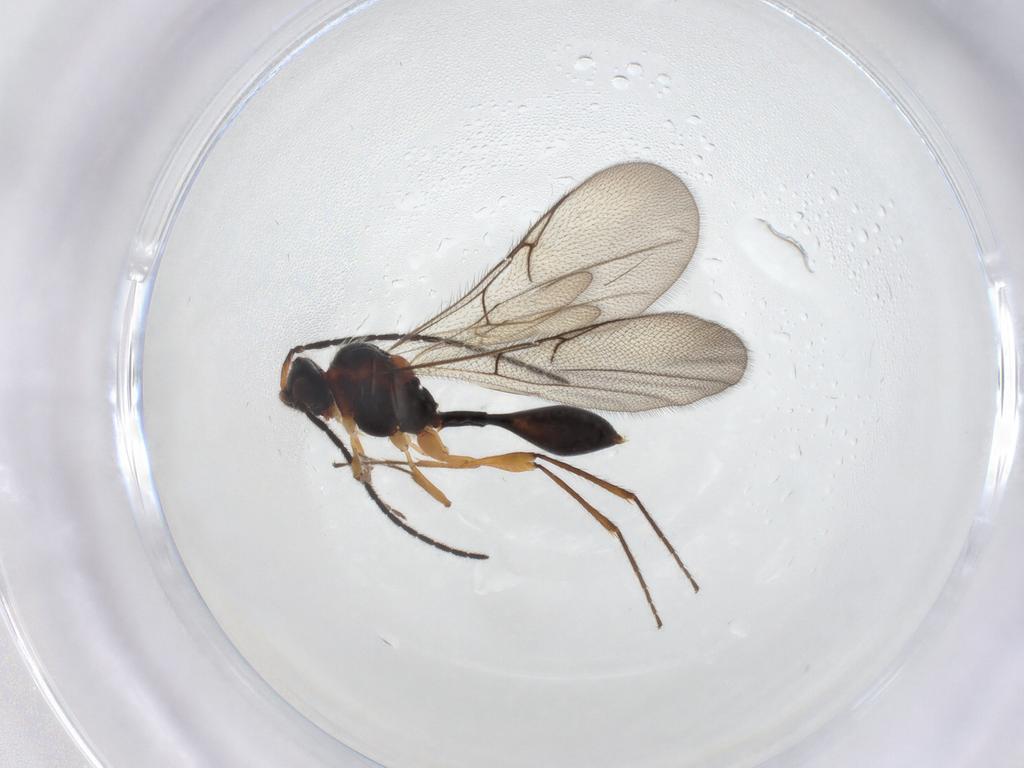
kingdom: Animalia
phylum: Arthropoda
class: Insecta
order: Hymenoptera
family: Diapriidae
